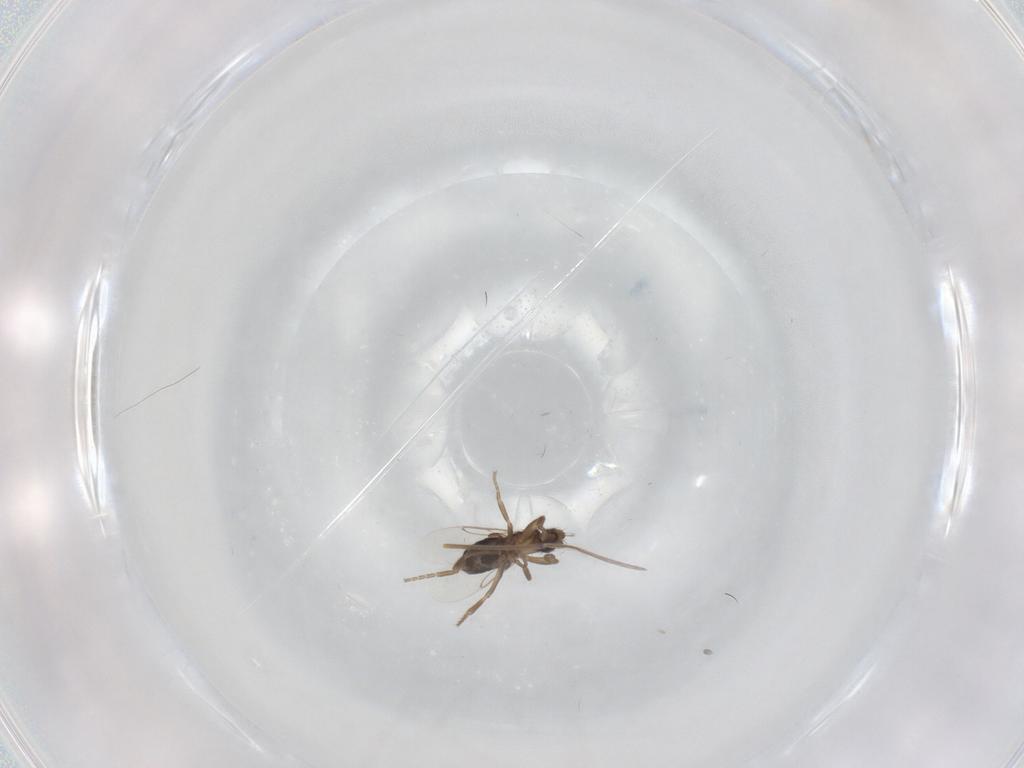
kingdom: Animalia
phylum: Arthropoda
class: Insecta
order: Diptera
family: Phoridae
